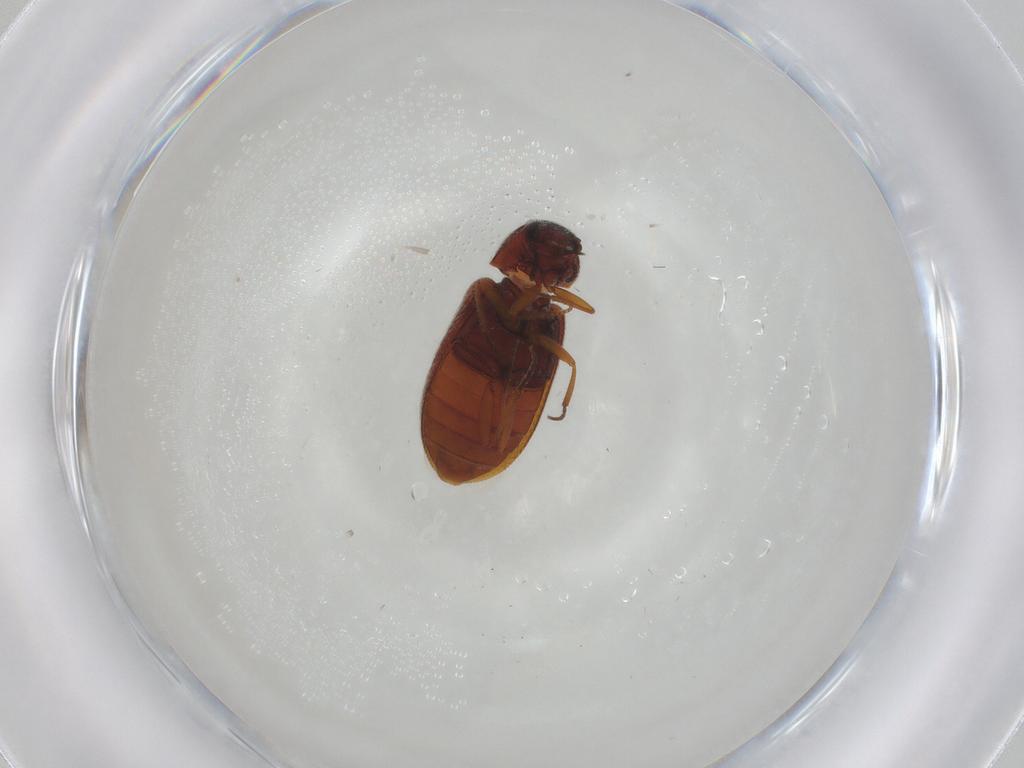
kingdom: Animalia
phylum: Arthropoda
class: Insecta
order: Coleoptera
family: Rhadalidae
